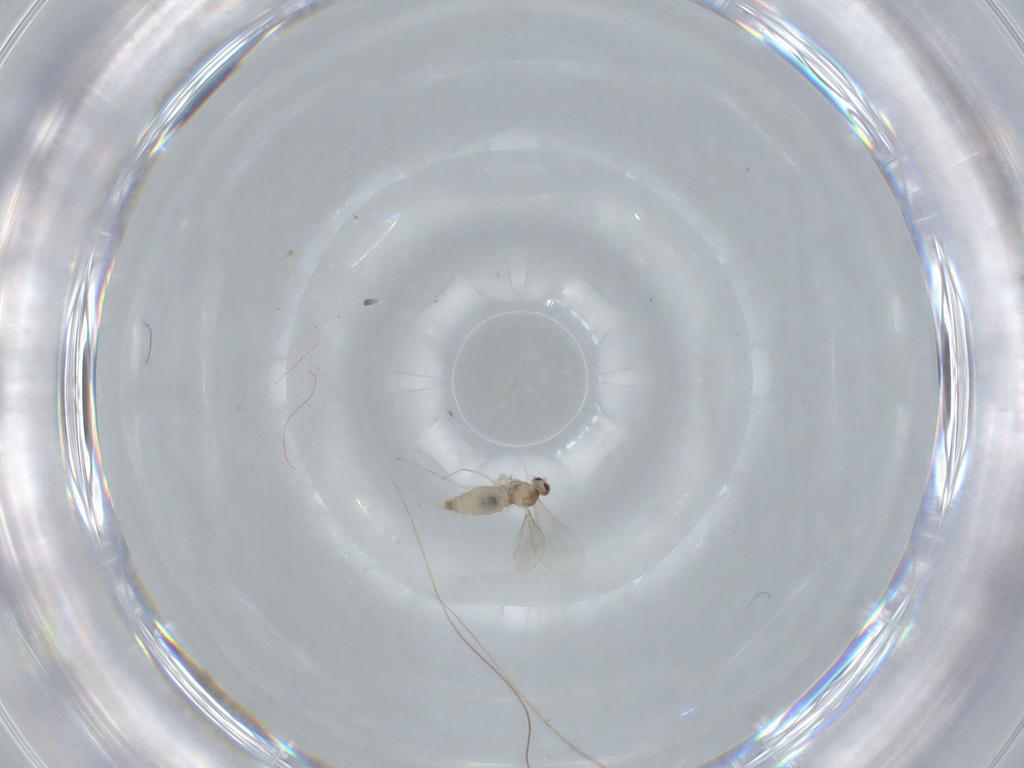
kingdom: Animalia
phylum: Arthropoda
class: Insecta
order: Diptera
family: Cecidomyiidae
